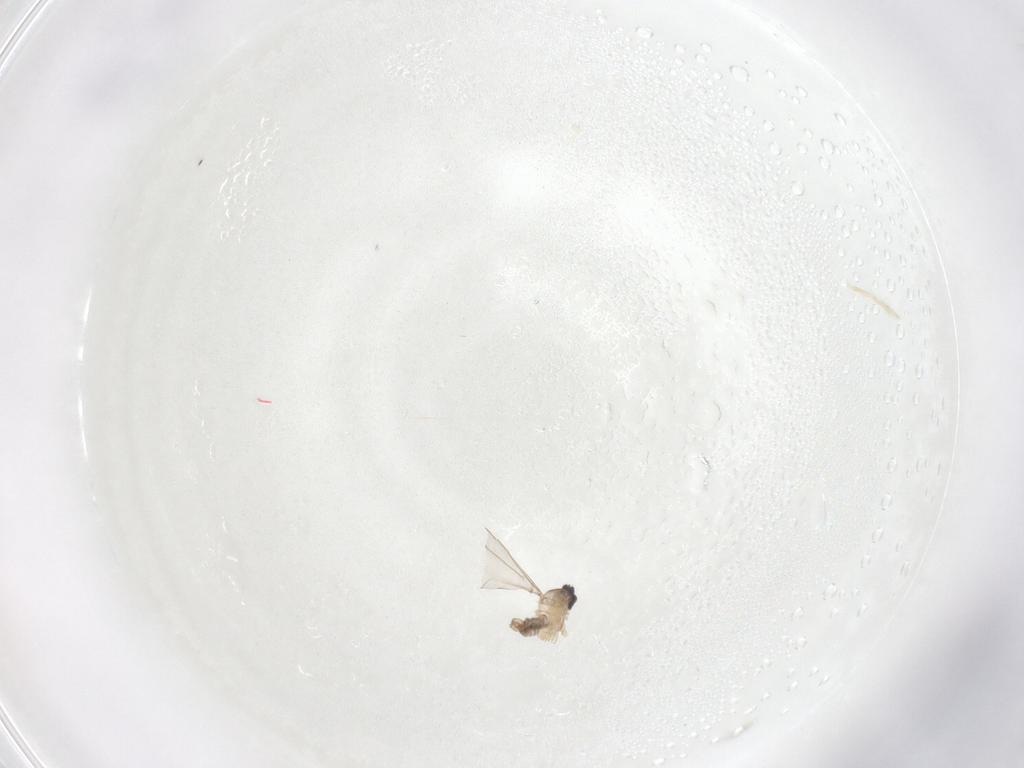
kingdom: Animalia
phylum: Arthropoda
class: Insecta
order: Diptera
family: Cecidomyiidae
